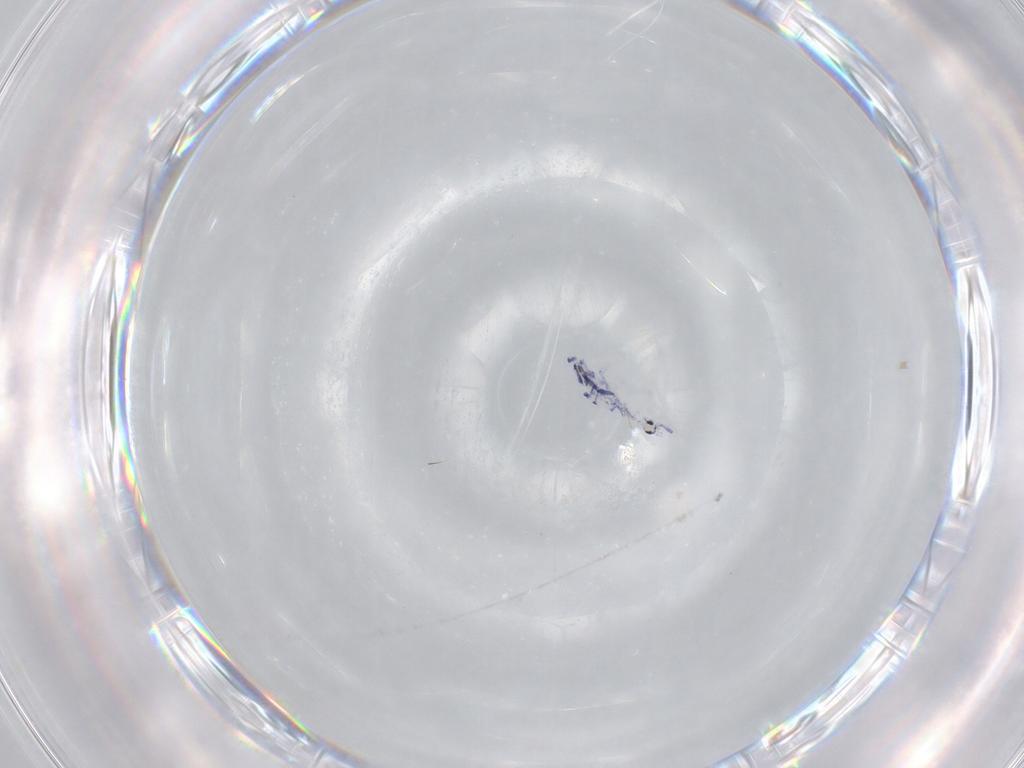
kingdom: Animalia
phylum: Arthropoda
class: Collembola
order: Entomobryomorpha
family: Entomobryidae
